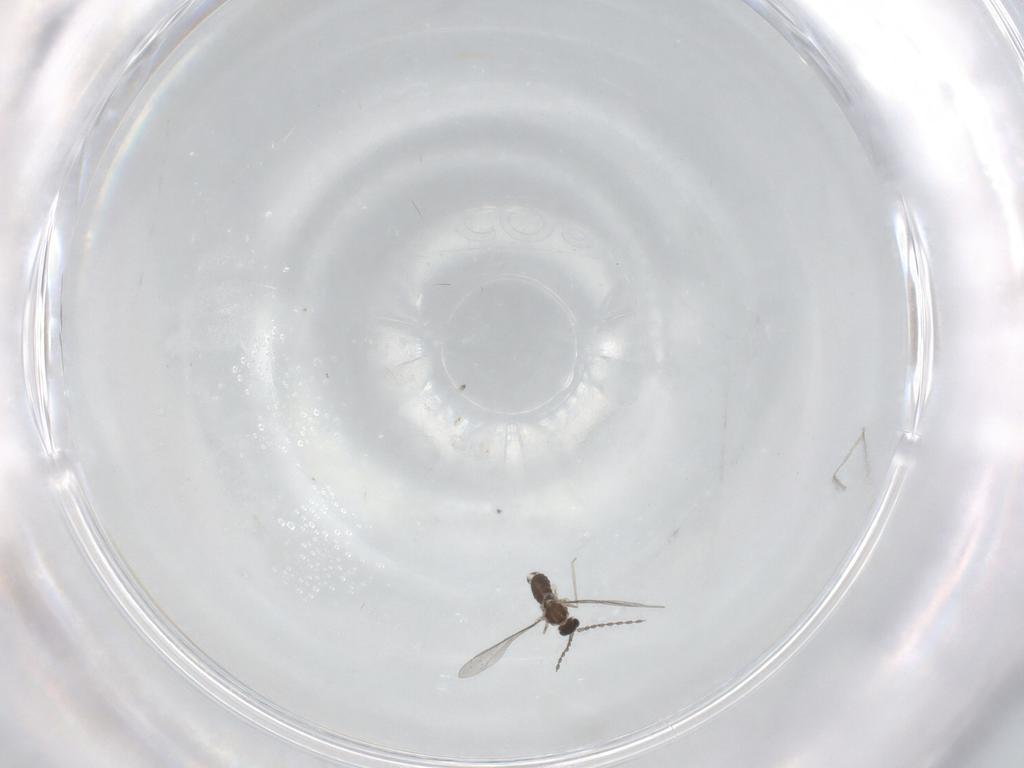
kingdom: Animalia
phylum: Arthropoda
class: Insecta
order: Diptera
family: Cecidomyiidae
